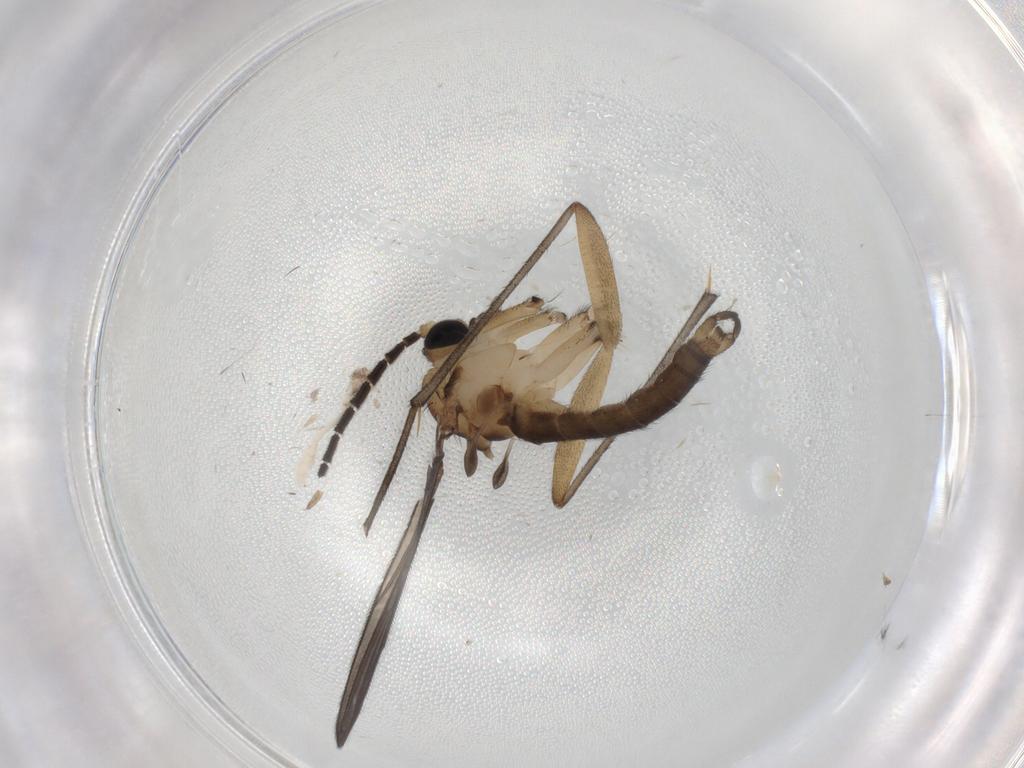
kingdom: Animalia
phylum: Arthropoda
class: Insecta
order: Diptera
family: Sciaridae
